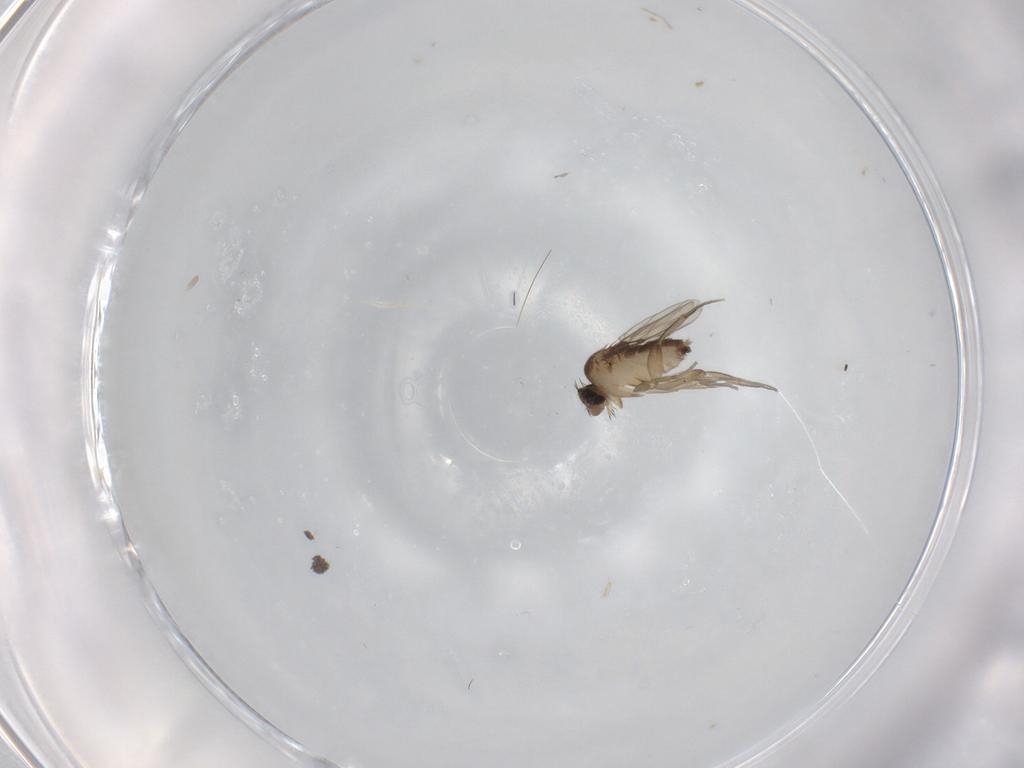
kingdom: Animalia
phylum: Arthropoda
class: Insecta
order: Diptera
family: Phoridae
